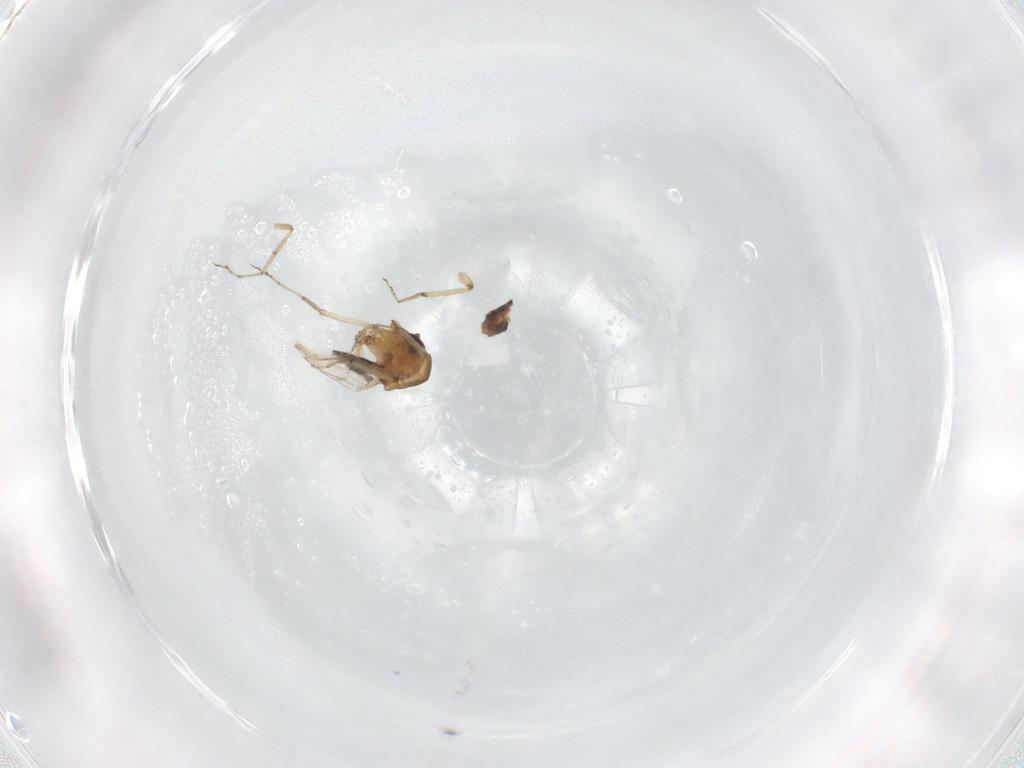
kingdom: Animalia
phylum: Arthropoda
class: Insecta
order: Diptera
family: Ceratopogonidae
